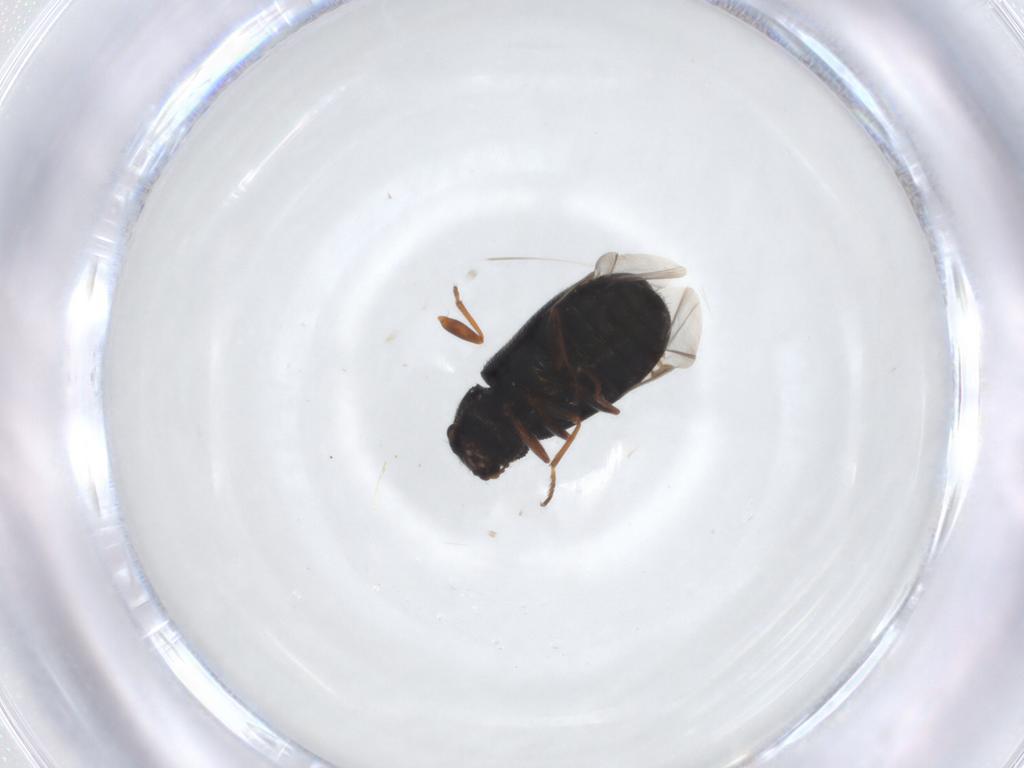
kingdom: Animalia
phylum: Arthropoda
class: Insecta
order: Coleoptera
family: Melyridae
